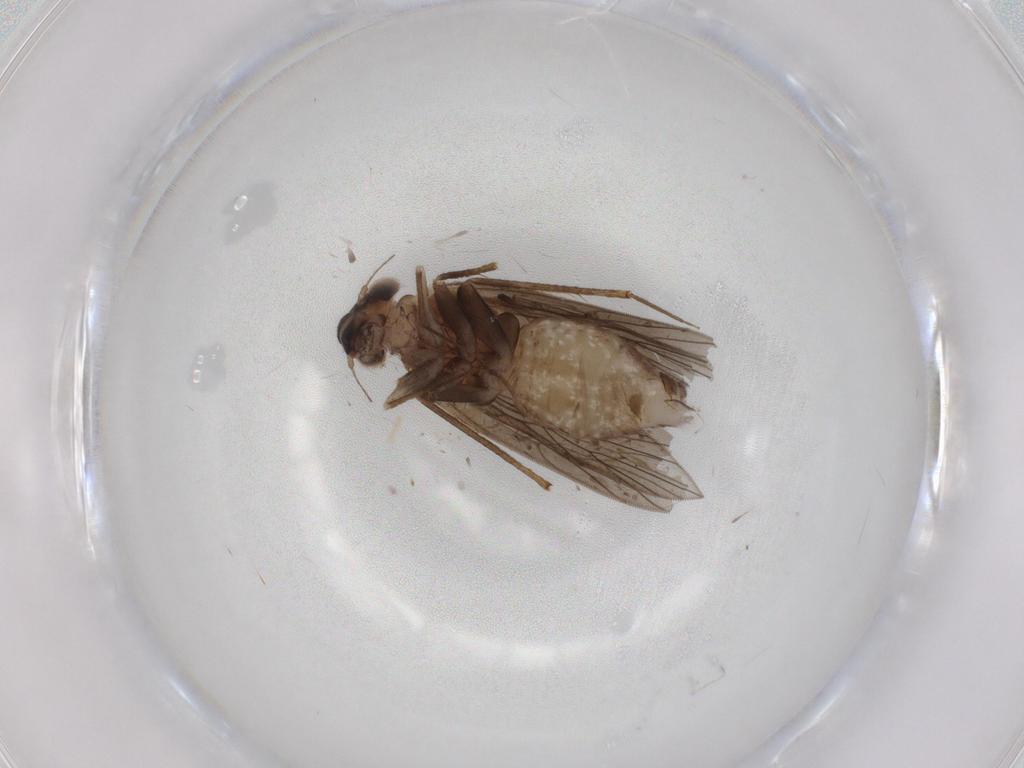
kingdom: Animalia
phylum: Arthropoda
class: Insecta
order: Psocodea
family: Lepidopsocidae
